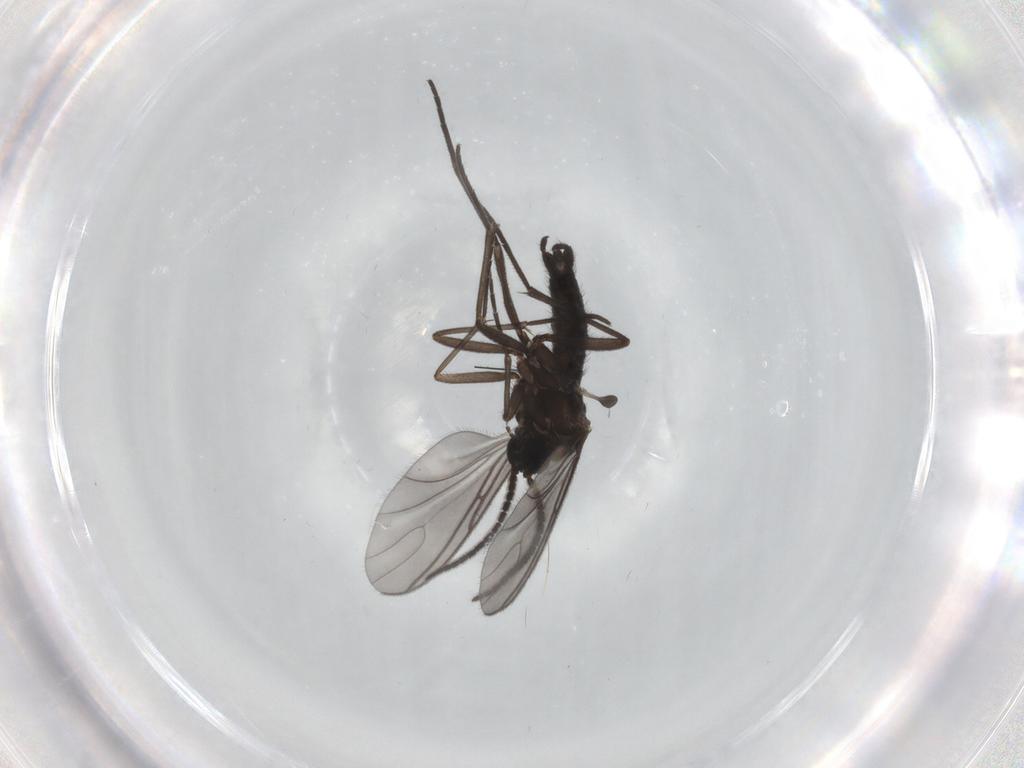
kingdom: Animalia
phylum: Arthropoda
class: Insecta
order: Diptera
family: Sciaridae
